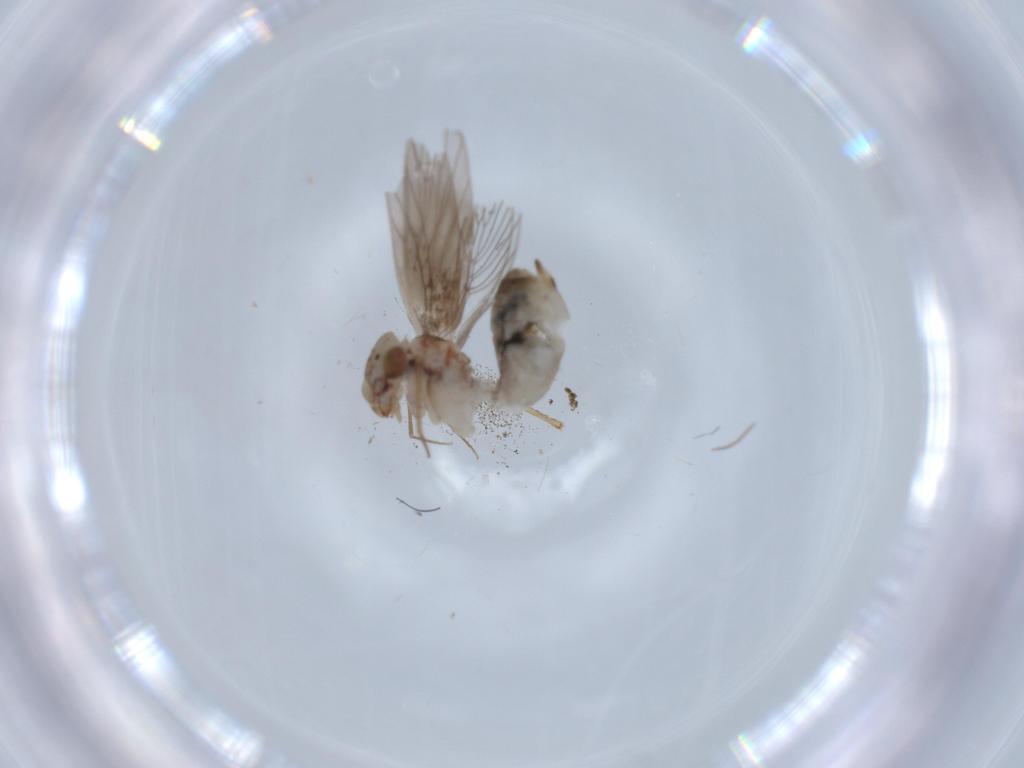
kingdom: Animalia
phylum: Arthropoda
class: Insecta
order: Psocodea
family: Lepidopsocidae
